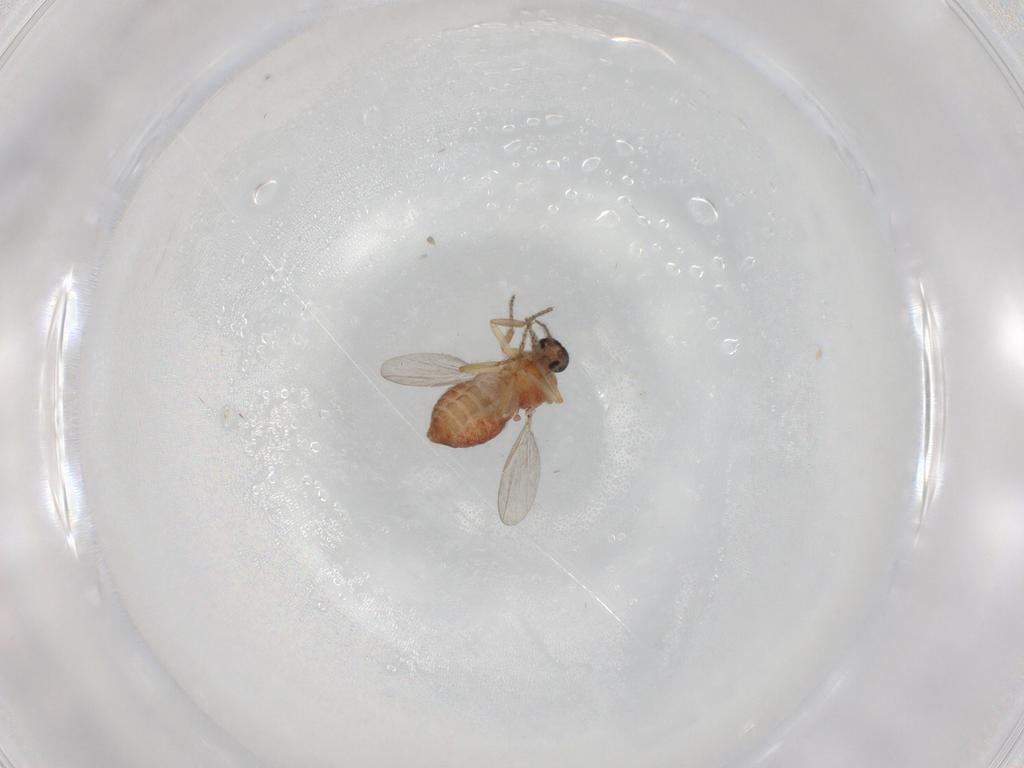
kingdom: Animalia
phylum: Arthropoda
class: Insecta
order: Diptera
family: Ceratopogonidae
